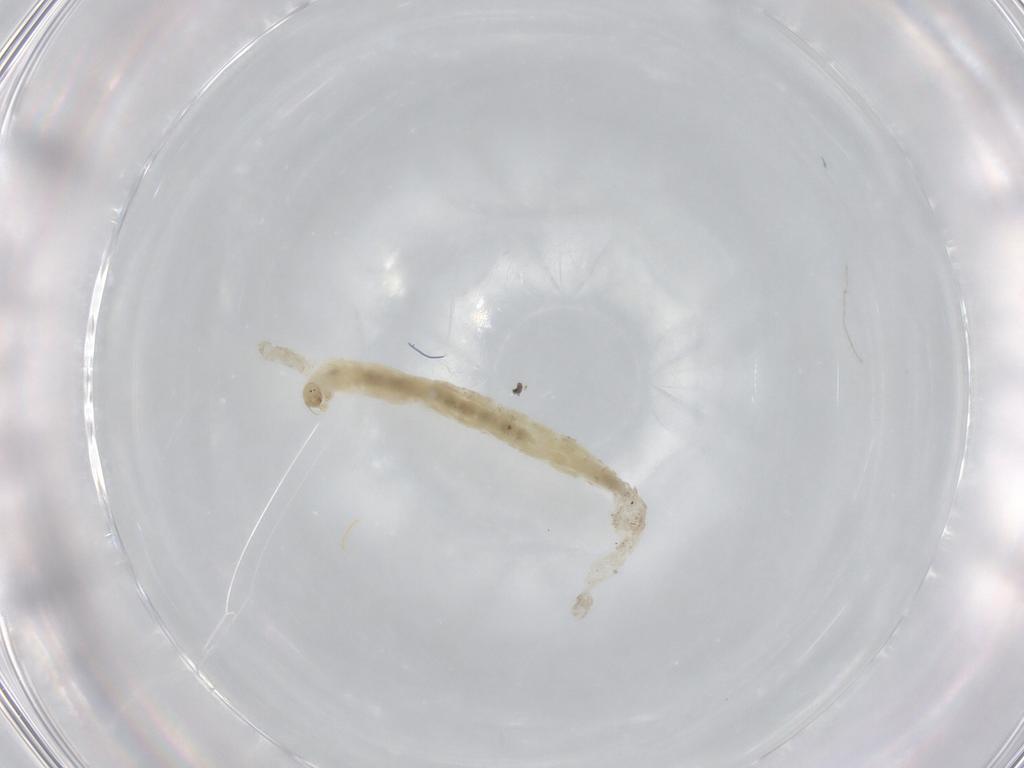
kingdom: Animalia
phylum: Arthropoda
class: Insecta
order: Diptera
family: Chironomidae
